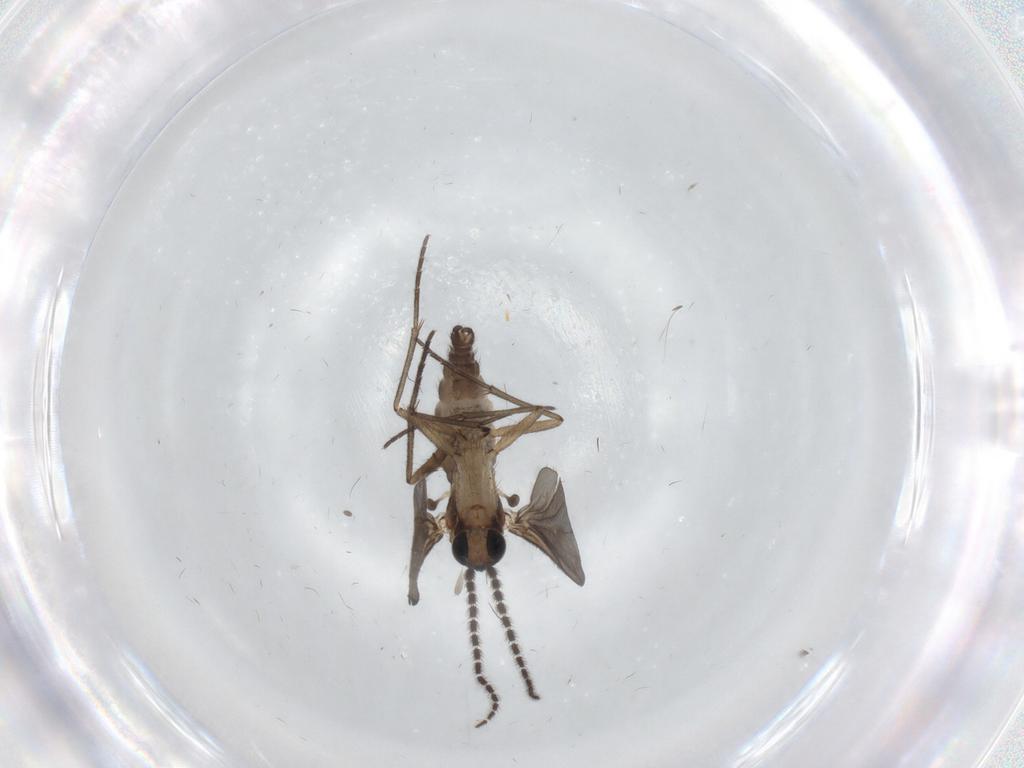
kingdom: Animalia
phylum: Arthropoda
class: Insecta
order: Diptera
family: Sciaridae
